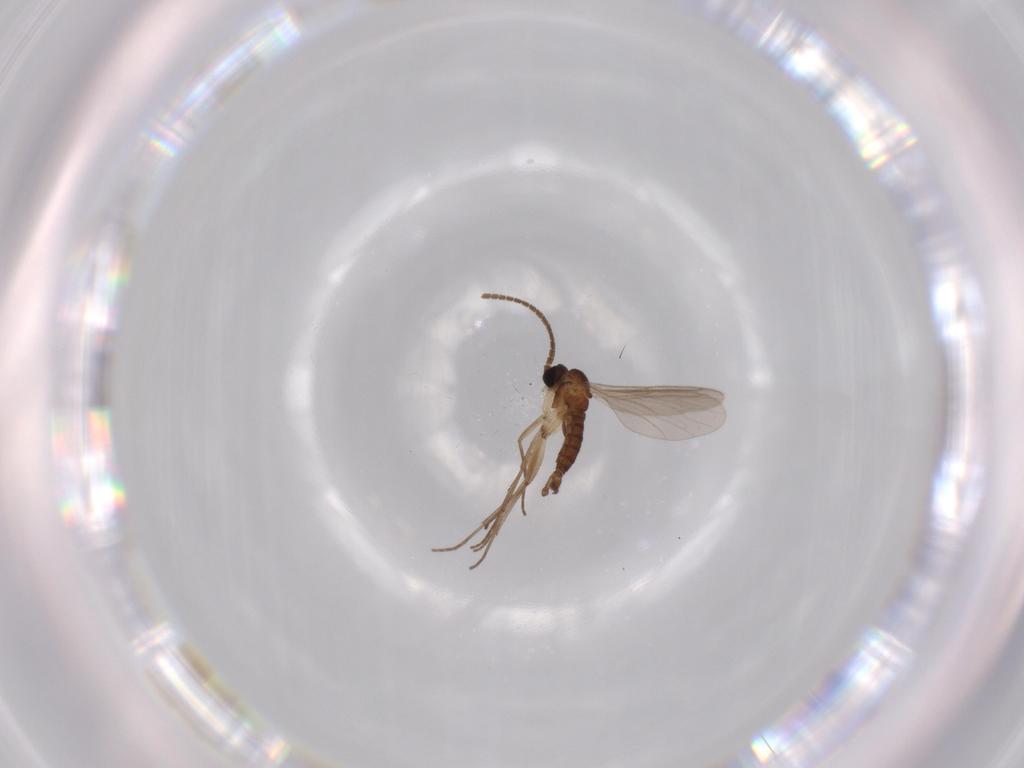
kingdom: Animalia
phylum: Arthropoda
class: Insecta
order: Diptera
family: Sciaridae
